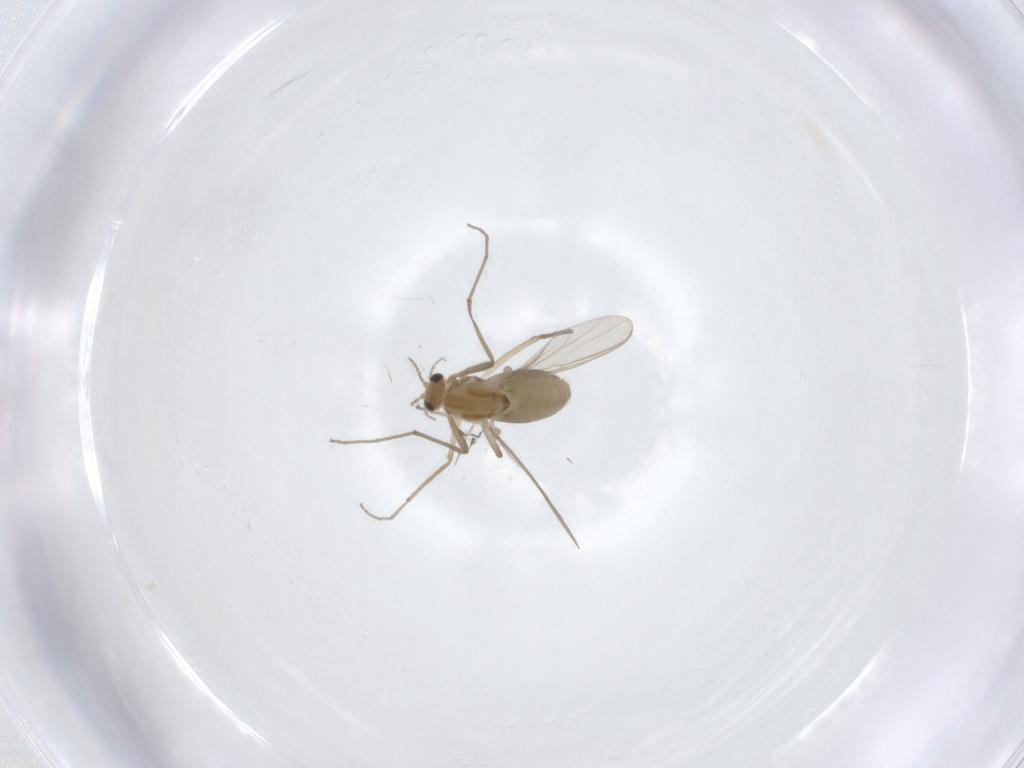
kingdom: Animalia
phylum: Arthropoda
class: Insecta
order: Diptera
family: Chironomidae
